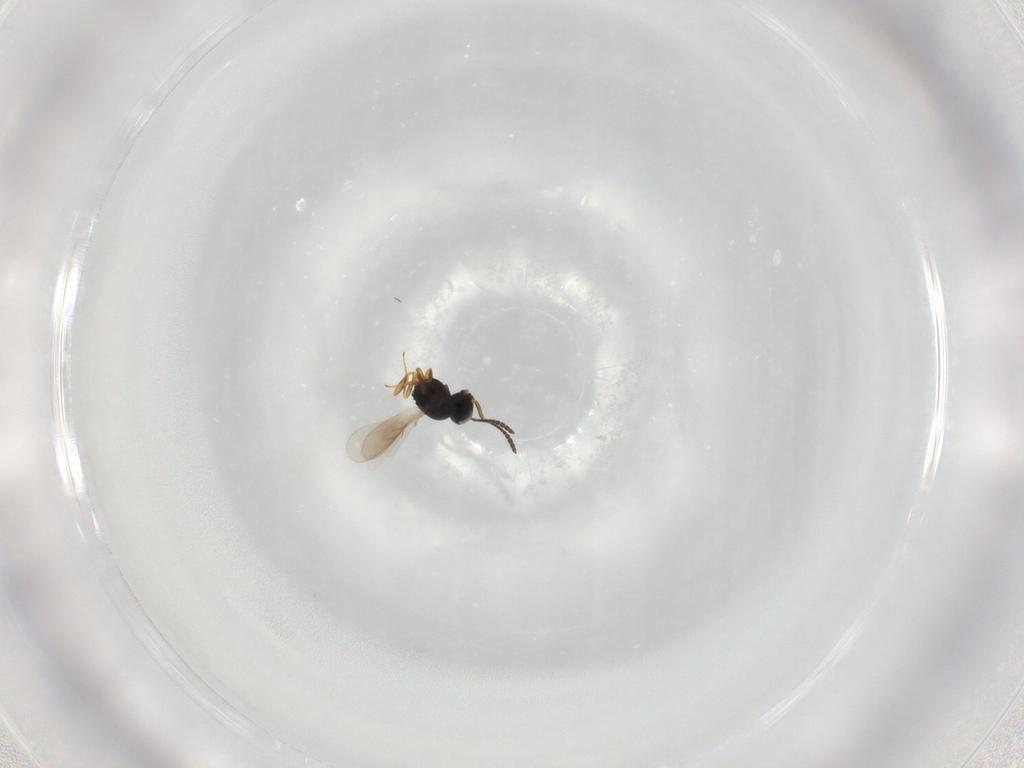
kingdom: Animalia
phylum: Arthropoda
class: Insecta
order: Hymenoptera
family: Scelionidae
